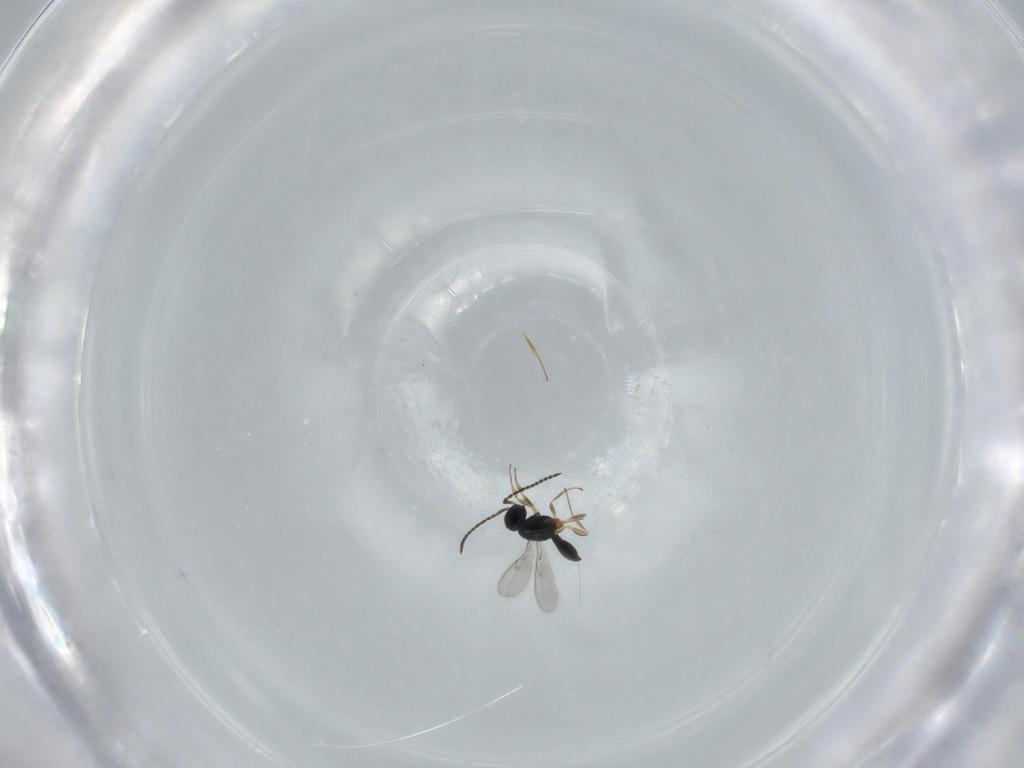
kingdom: Animalia
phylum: Arthropoda
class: Insecta
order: Hymenoptera
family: Scelionidae
